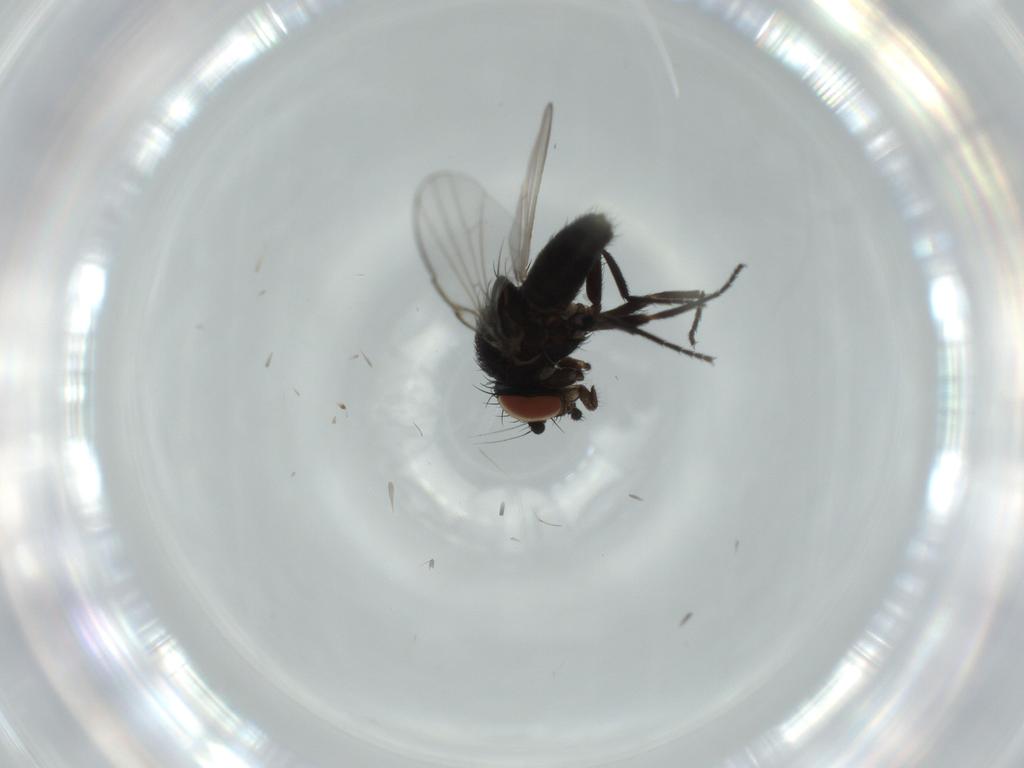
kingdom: Animalia
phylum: Arthropoda
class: Insecta
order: Diptera
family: Milichiidae
